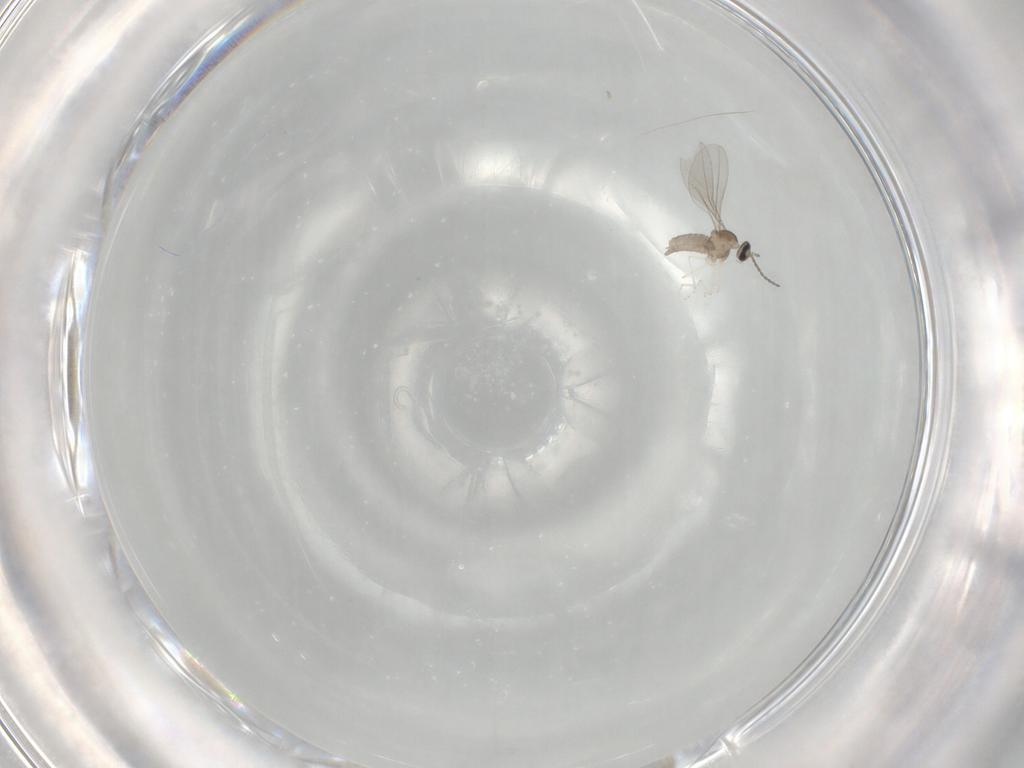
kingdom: Animalia
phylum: Arthropoda
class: Insecta
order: Diptera
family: Cecidomyiidae
